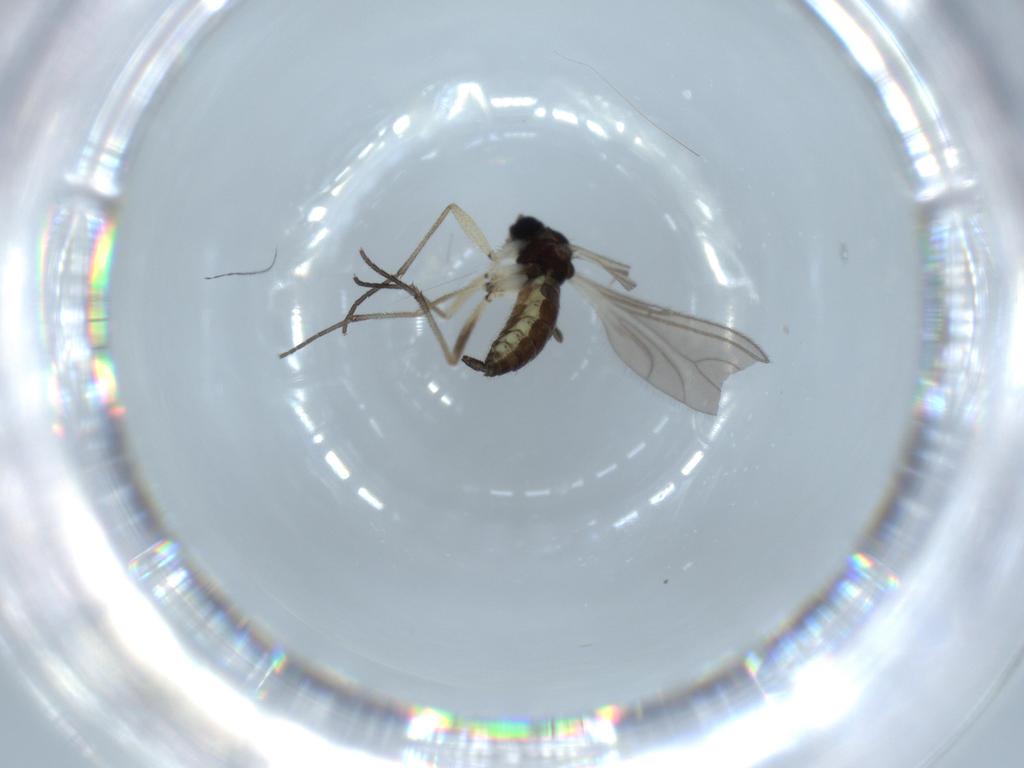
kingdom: Animalia
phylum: Arthropoda
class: Insecta
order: Diptera
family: Sciaridae
